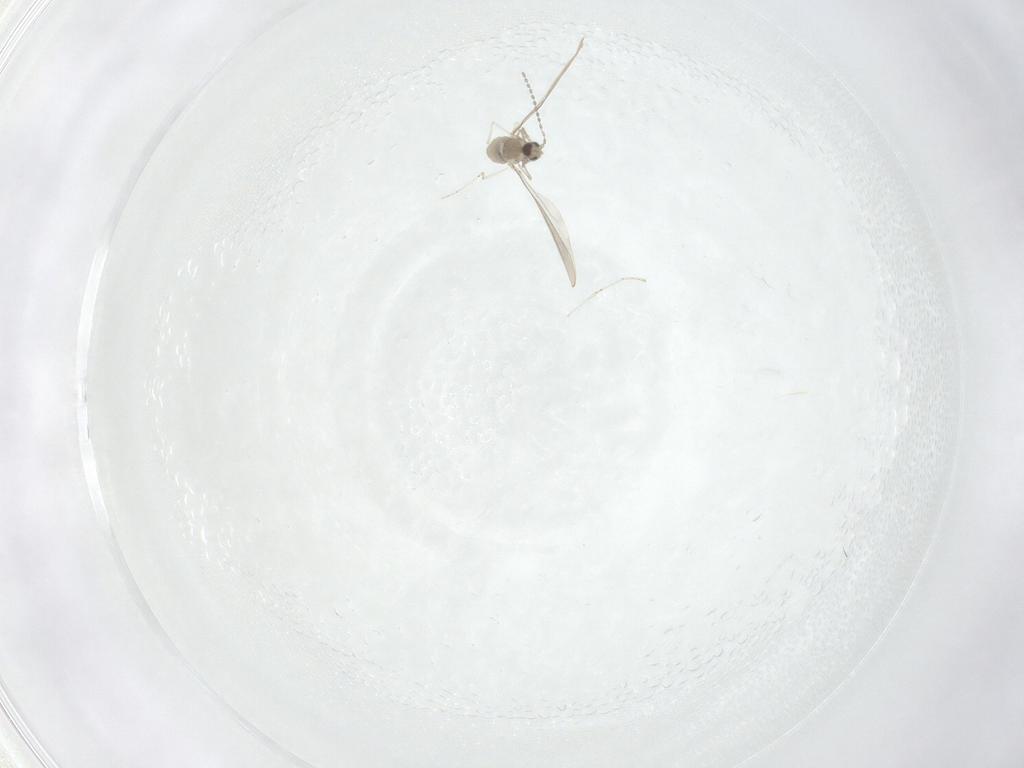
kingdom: Animalia
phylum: Arthropoda
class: Insecta
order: Diptera
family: Cecidomyiidae
